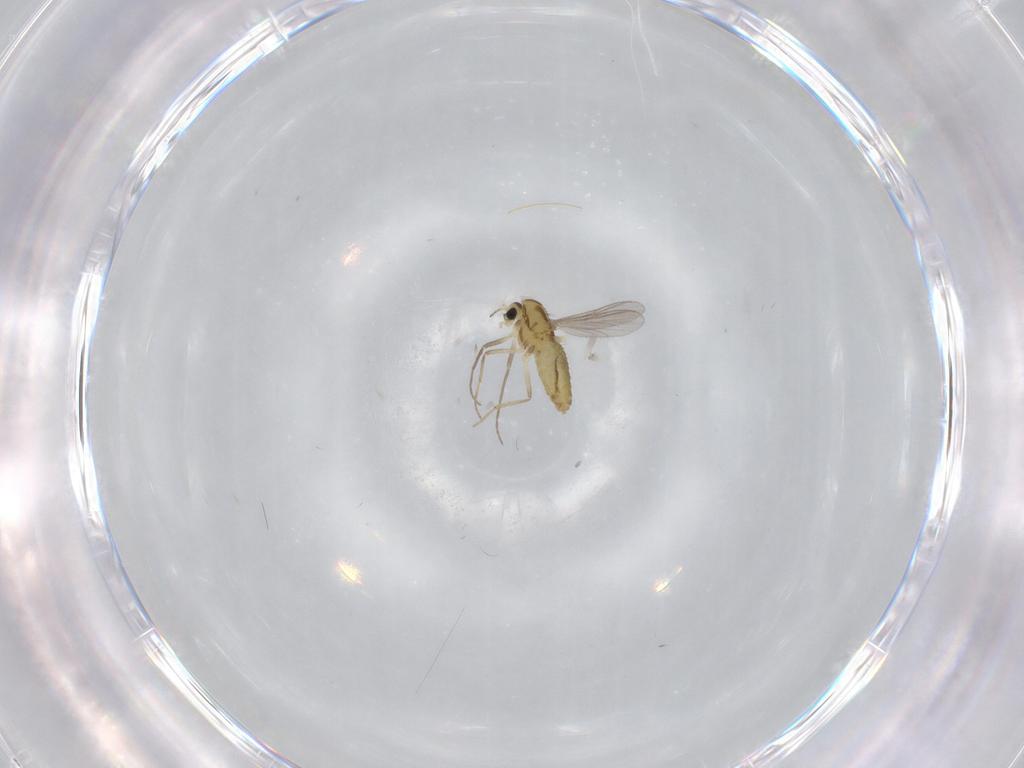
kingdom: Animalia
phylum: Arthropoda
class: Insecta
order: Diptera
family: Chironomidae
